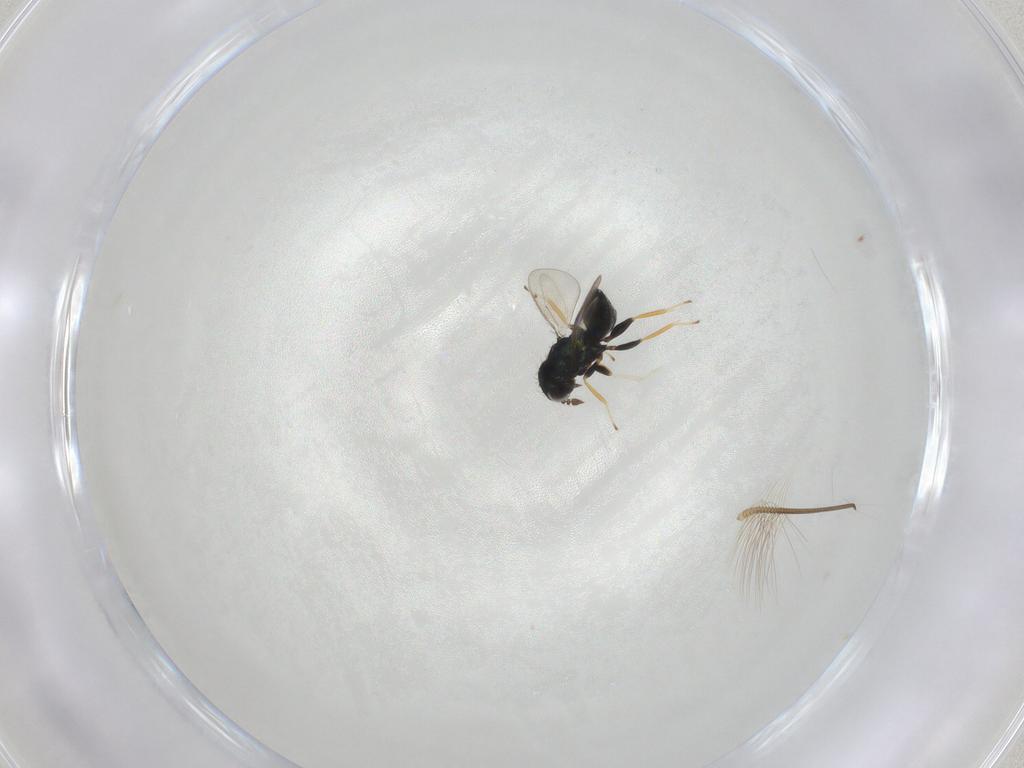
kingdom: Animalia
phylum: Arthropoda
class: Insecta
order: Hymenoptera
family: Eulophidae
